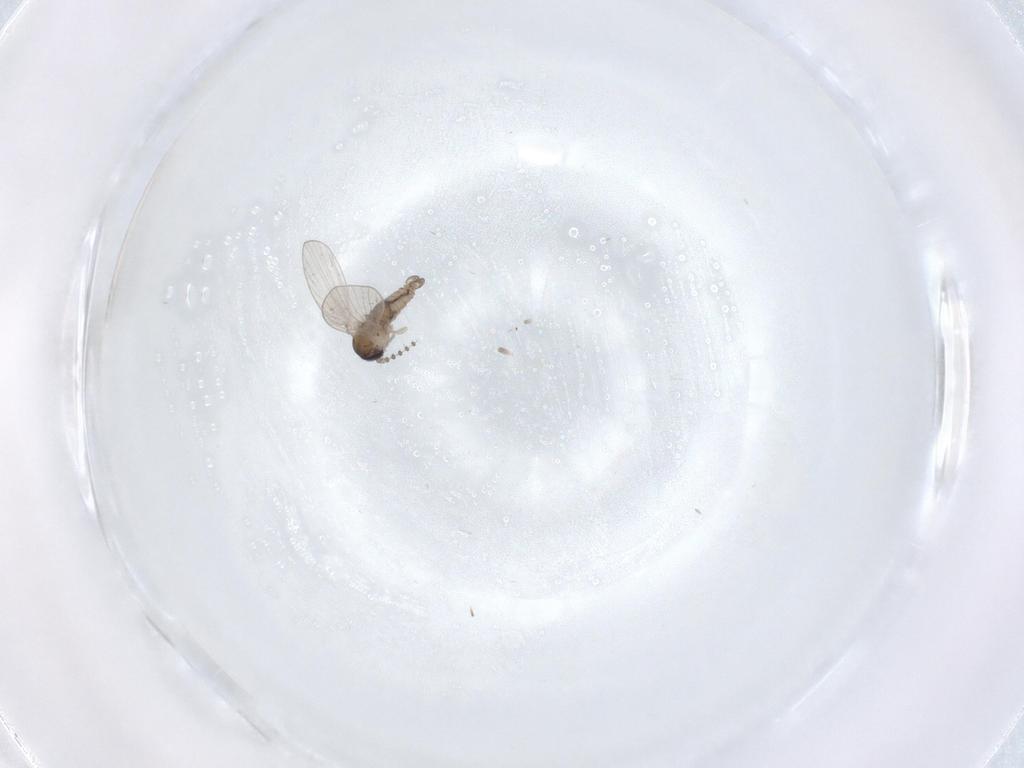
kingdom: Animalia
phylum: Arthropoda
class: Insecta
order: Diptera
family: Psychodidae
